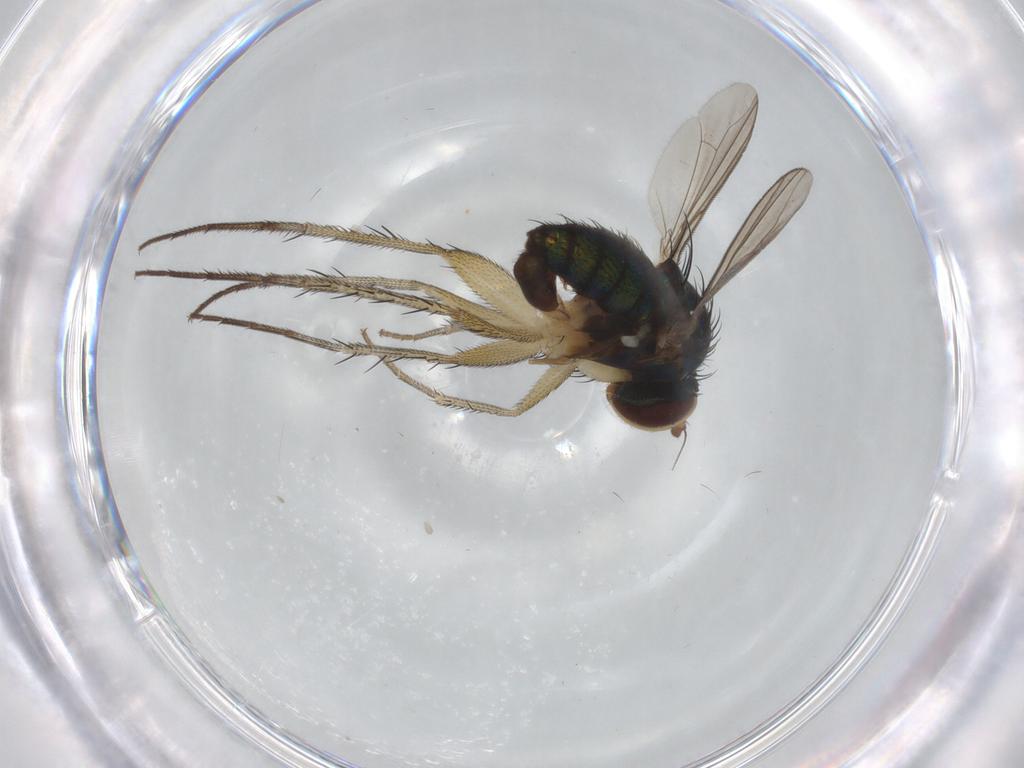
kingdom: Animalia
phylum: Arthropoda
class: Insecta
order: Diptera
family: Dolichopodidae
